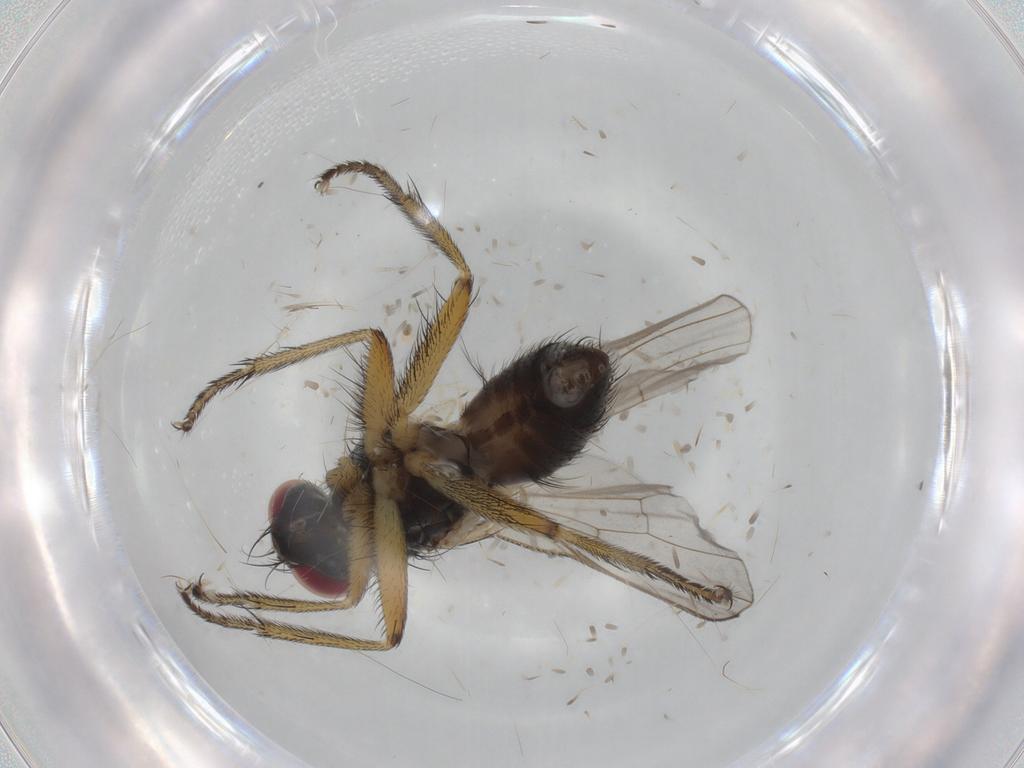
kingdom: Animalia
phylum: Arthropoda
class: Insecta
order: Diptera
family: Muscidae
